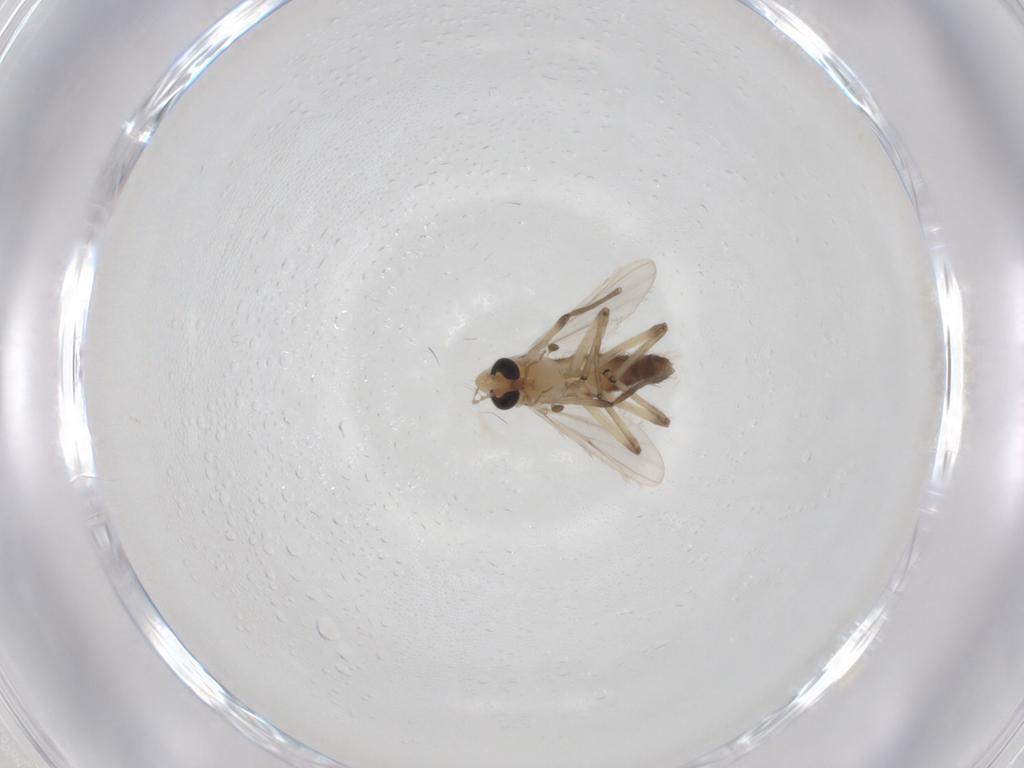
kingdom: Animalia
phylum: Arthropoda
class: Insecta
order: Diptera
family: Chironomidae
